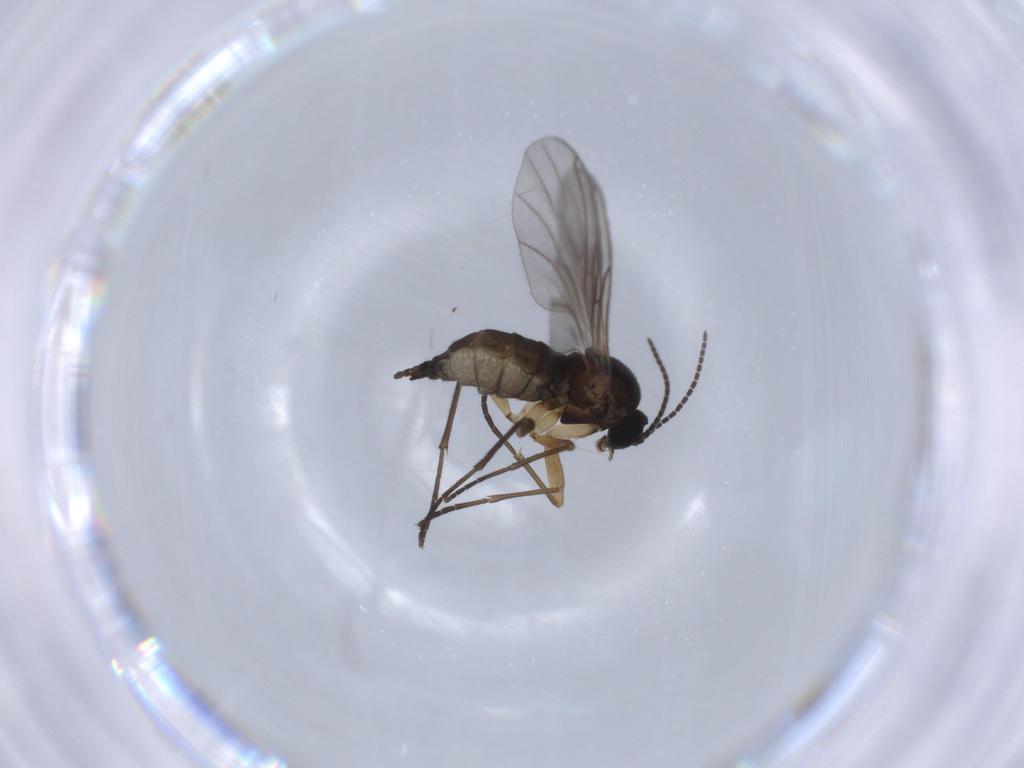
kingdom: Animalia
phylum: Arthropoda
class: Insecta
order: Diptera
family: Sciaridae
